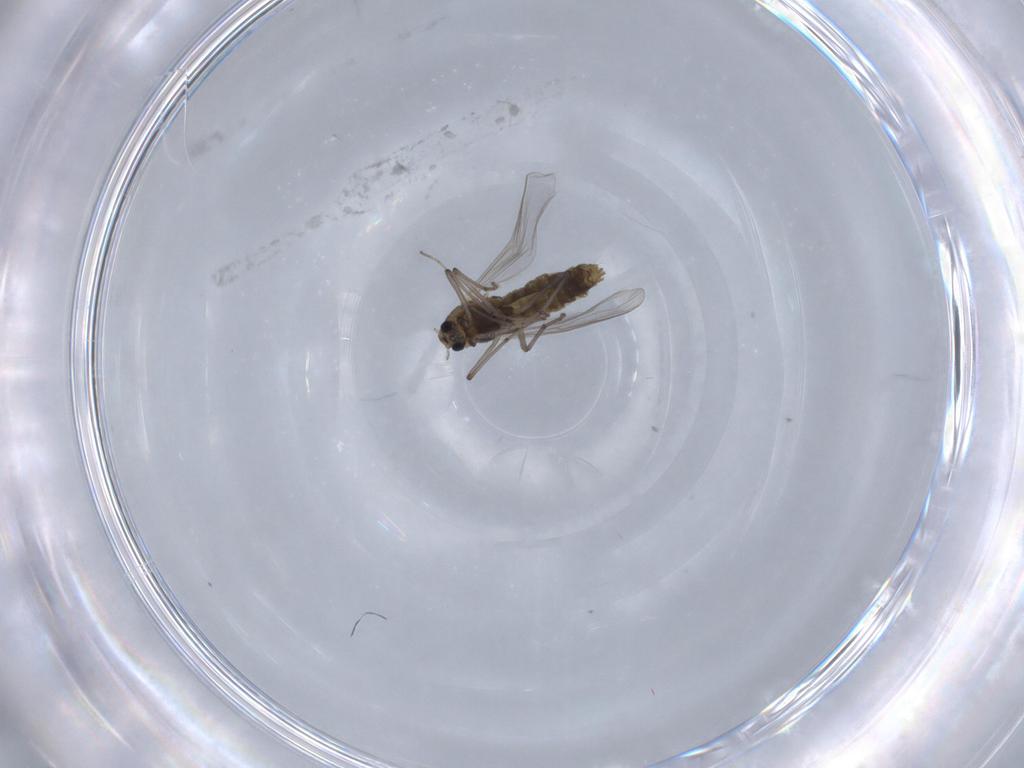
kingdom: Animalia
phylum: Arthropoda
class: Insecta
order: Diptera
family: Chironomidae
